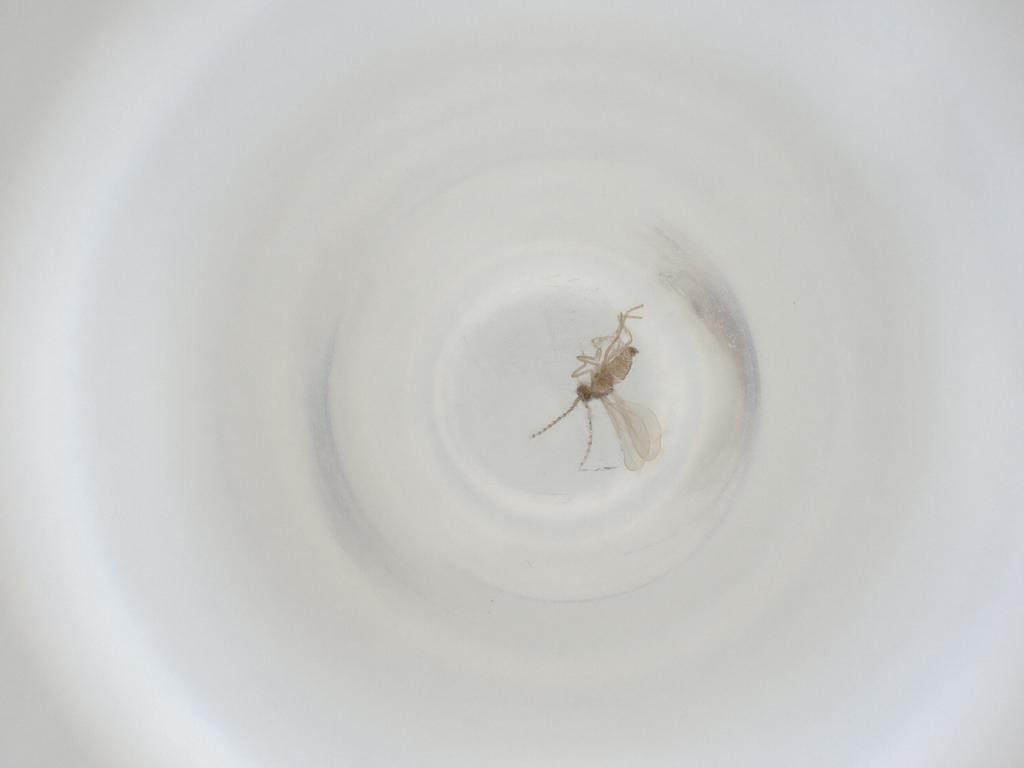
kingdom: Animalia
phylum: Arthropoda
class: Insecta
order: Diptera
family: Cecidomyiidae
